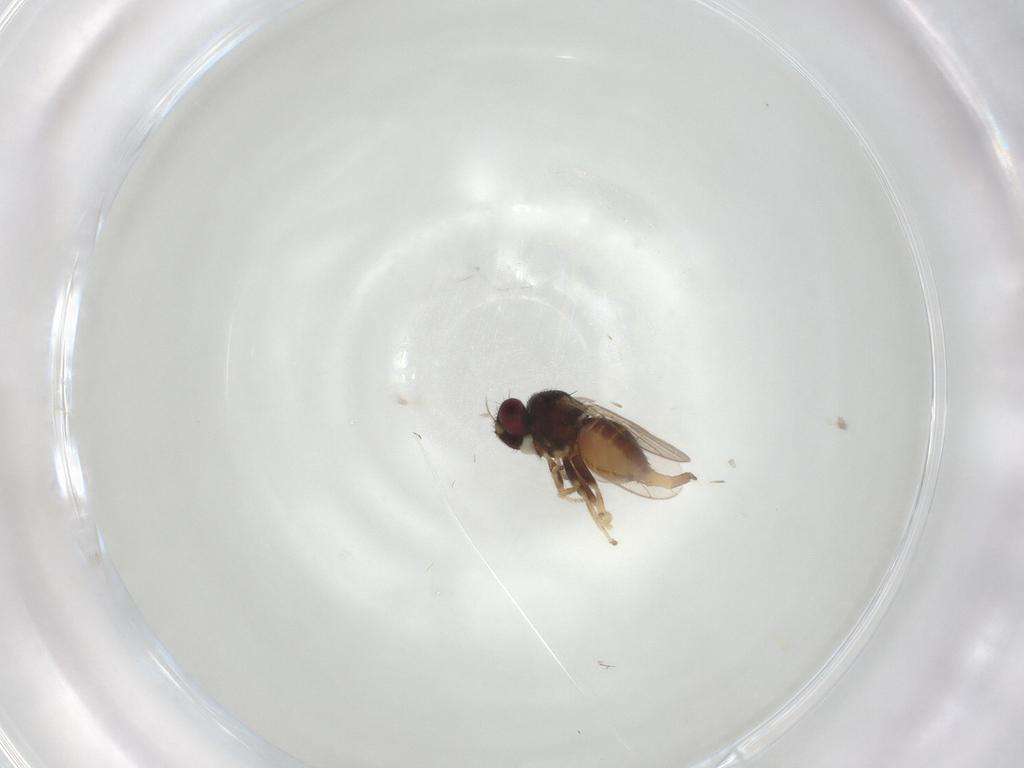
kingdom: Animalia
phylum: Arthropoda
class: Insecta
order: Diptera
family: Chloropidae
